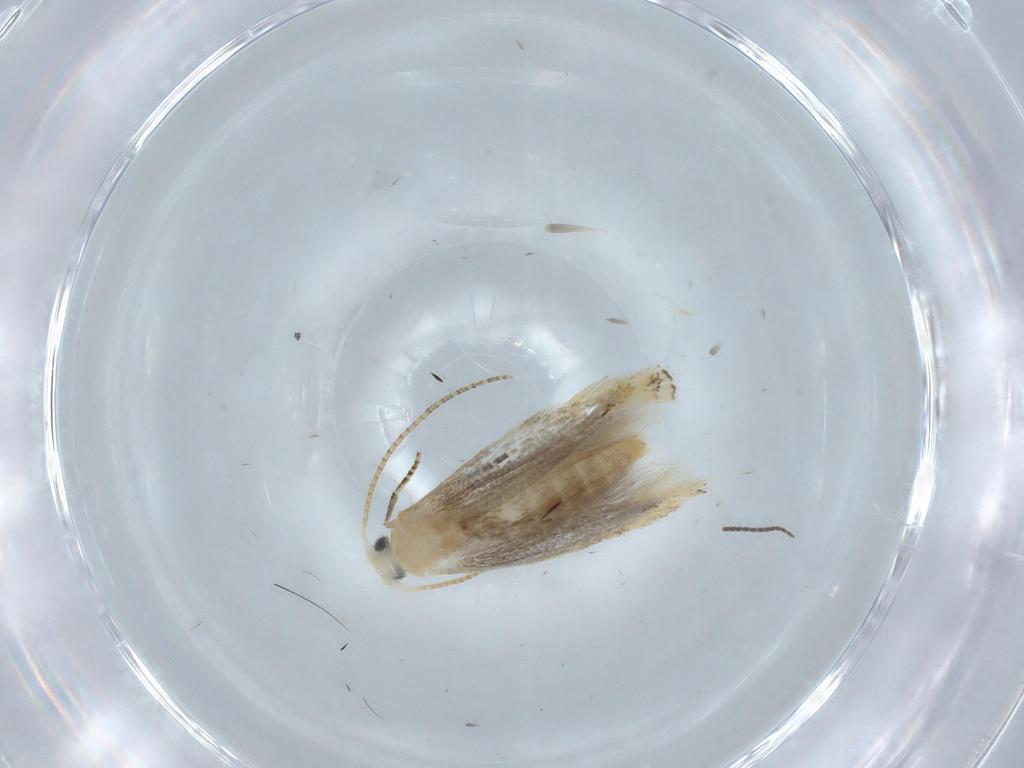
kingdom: Animalia
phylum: Arthropoda
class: Insecta
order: Lepidoptera
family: Bucculatricidae
